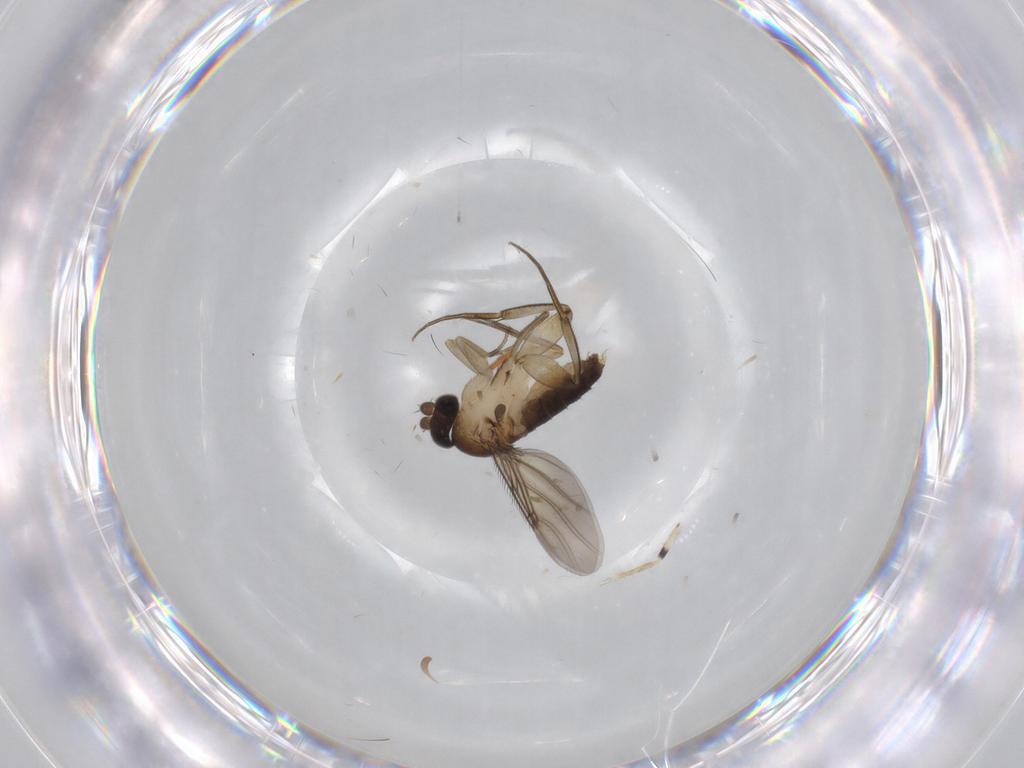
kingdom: Animalia
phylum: Arthropoda
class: Insecta
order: Diptera
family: Phoridae
